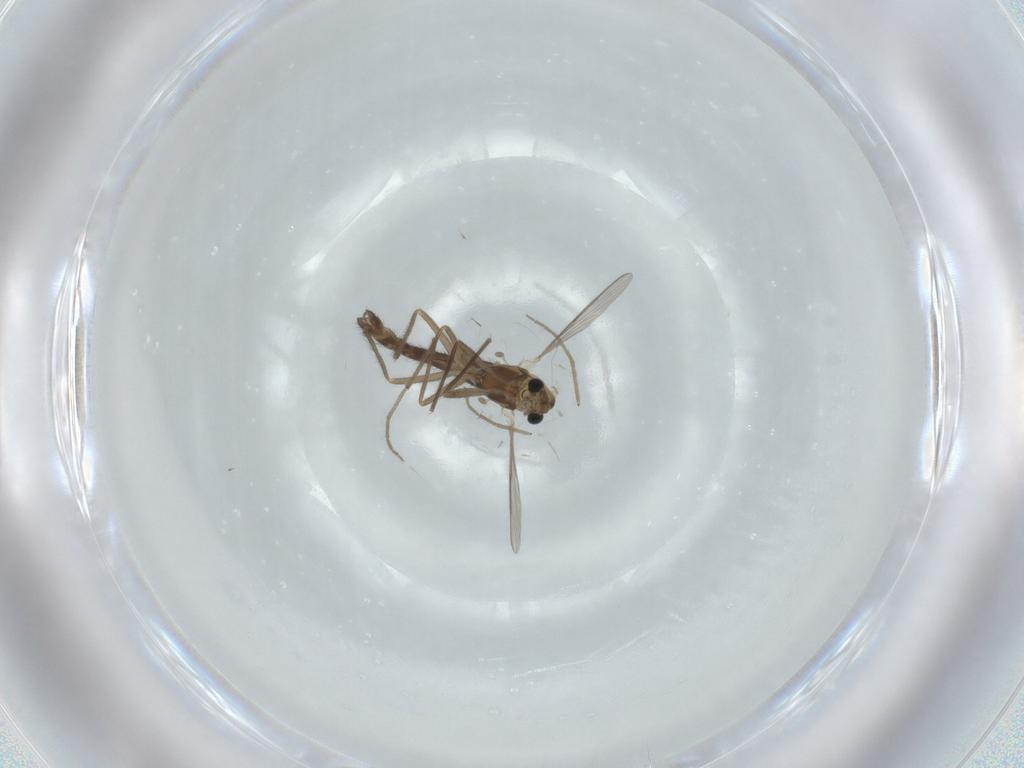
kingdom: Animalia
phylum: Arthropoda
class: Insecta
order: Diptera
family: Chironomidae
